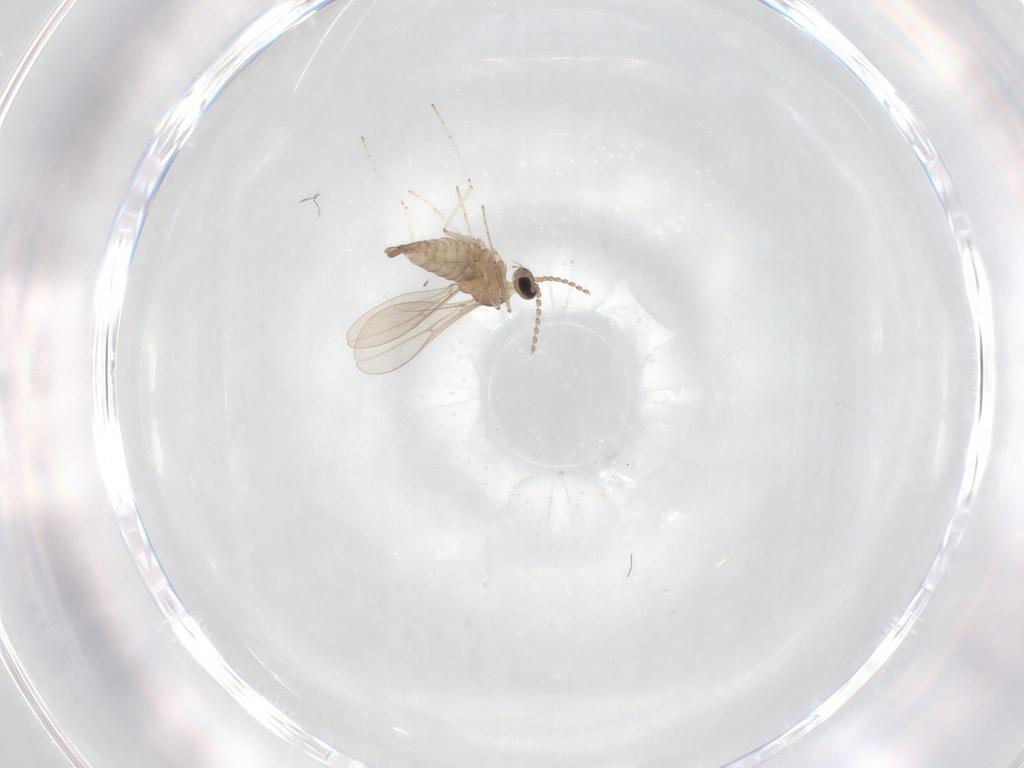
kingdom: Animalia
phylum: Arthropoda
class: Insecta
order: Diptera
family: Cecidomyiidae
